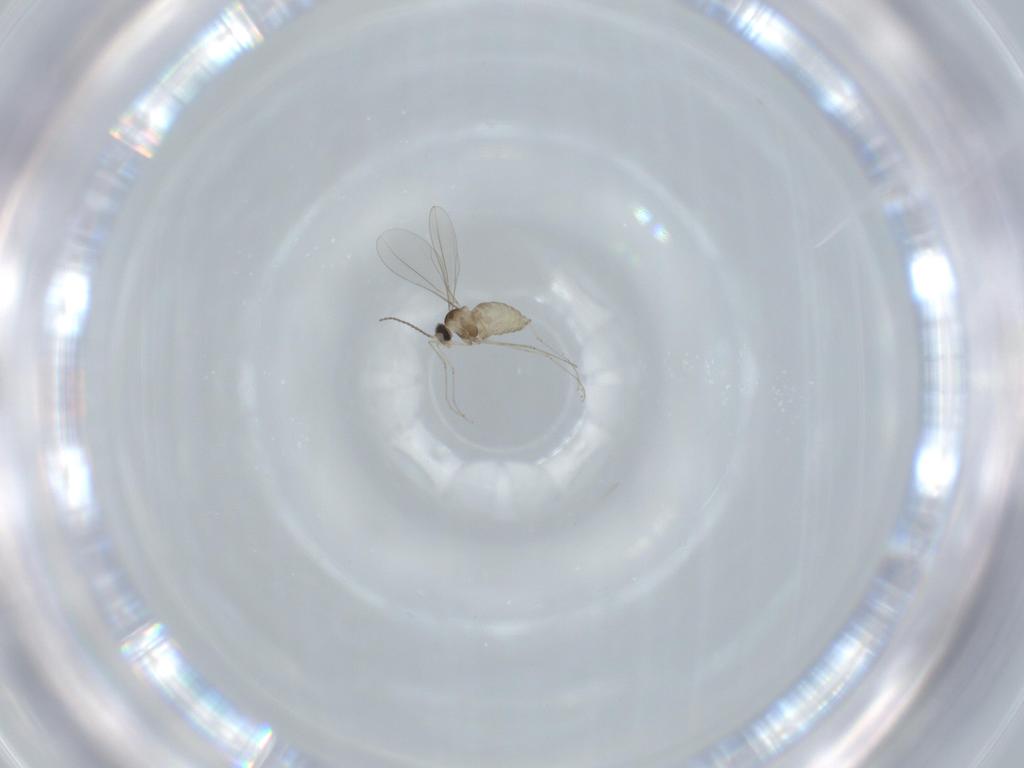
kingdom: Animalia
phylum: Arthropoda
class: Insecta
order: Diptera
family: Cecidomyiidae
